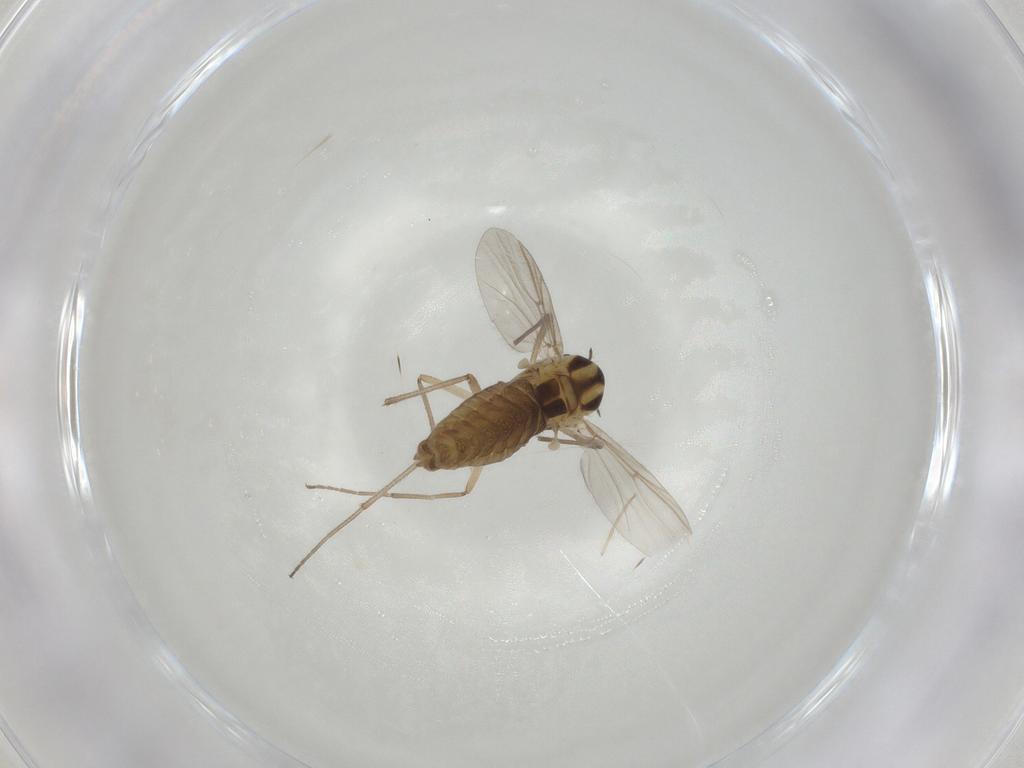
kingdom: Animalia
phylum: Arthropoda
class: Insecta
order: Diptera
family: Chironomidae
